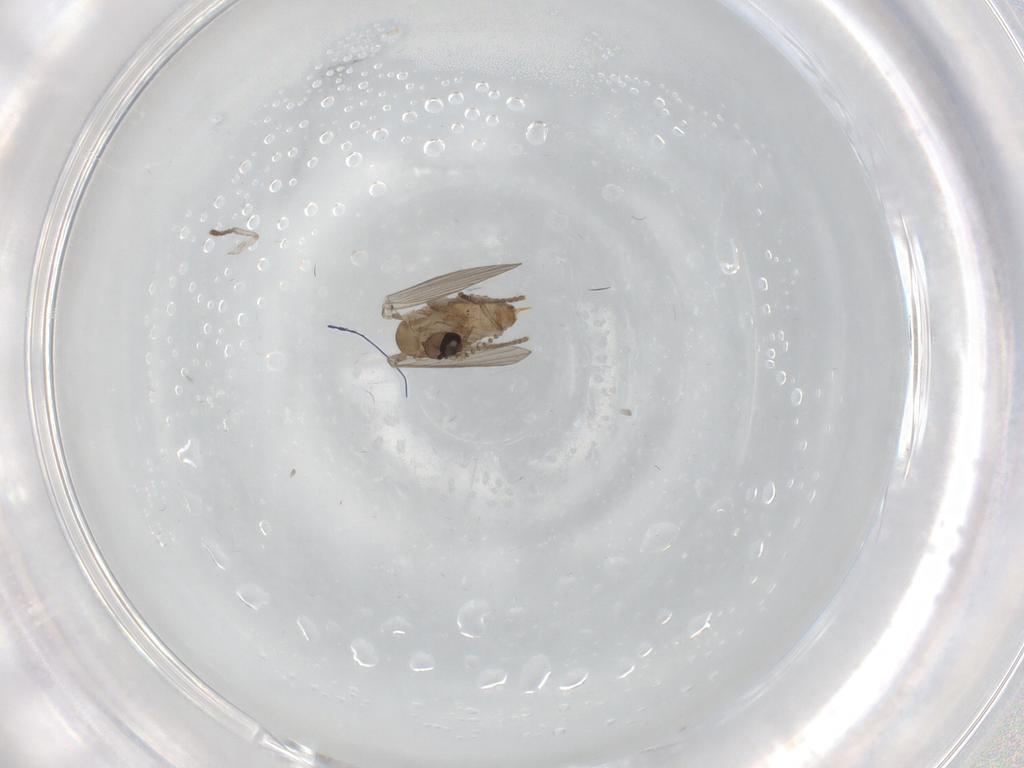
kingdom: Animalia
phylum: Arthropoda
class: Insecta
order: Diptera
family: Psychodidae
